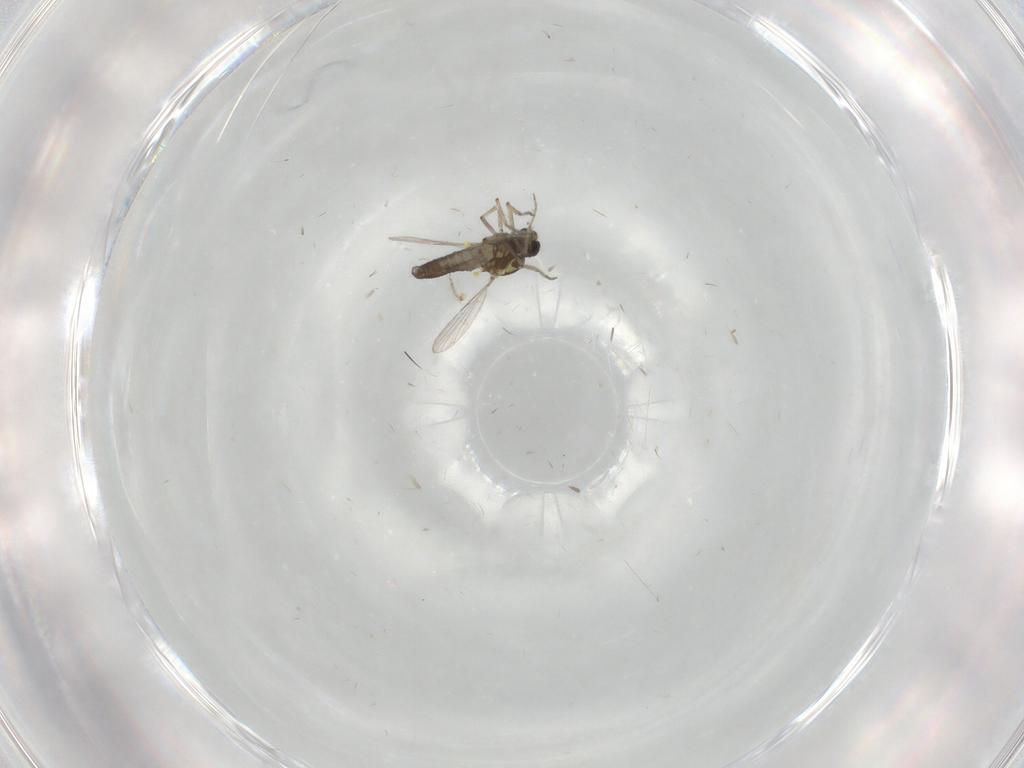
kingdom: Animalia
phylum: Arthropoda
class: Insecta
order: Diptera
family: Ceratopogonidae
